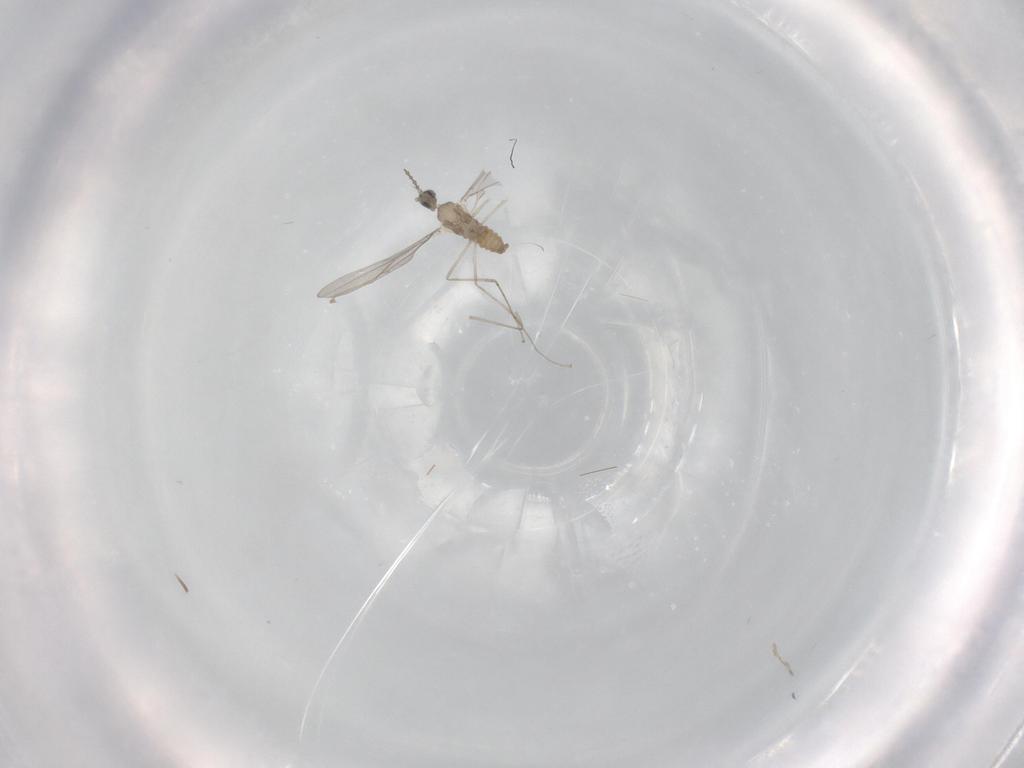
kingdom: Animalia
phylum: Arthropoda
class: Insecta
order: Diptera
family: Cecidomyiidae
